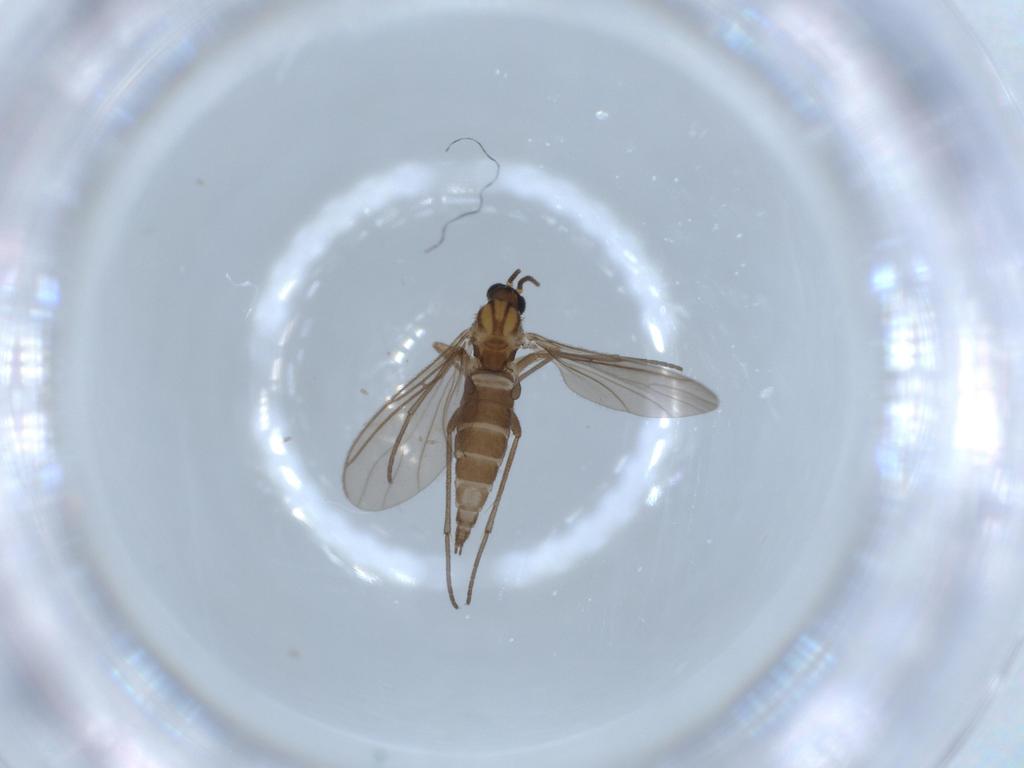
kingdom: Animalia
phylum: Arthropoda
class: Insecta
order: Diptera
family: Sciaridae
